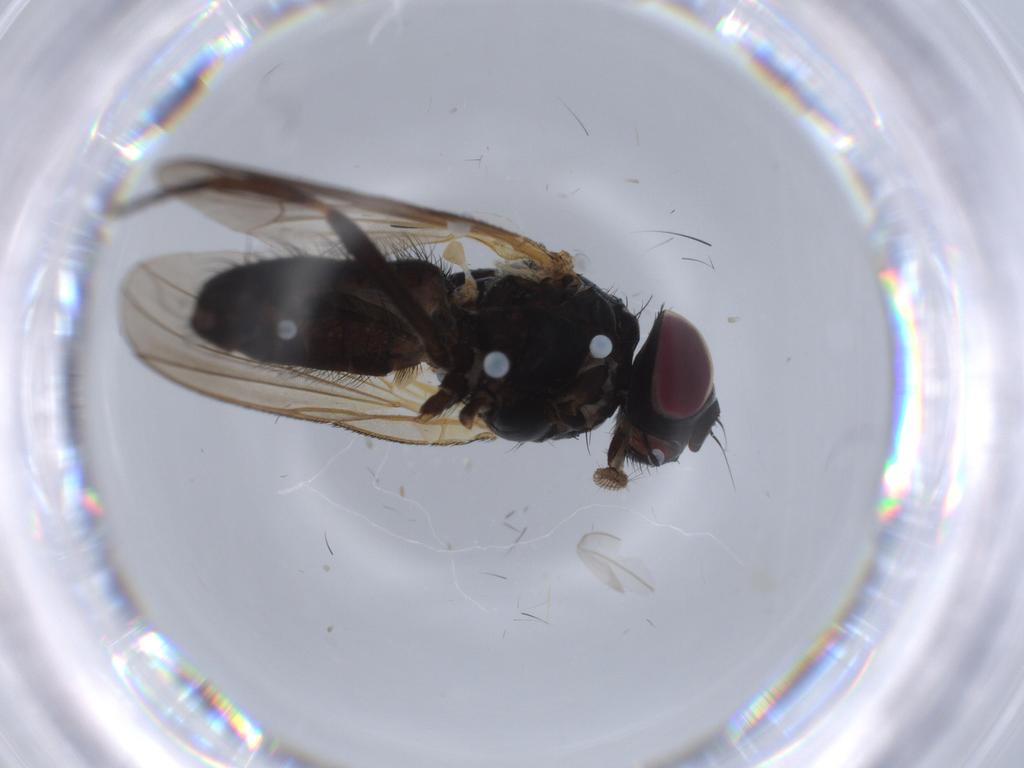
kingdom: Animalia
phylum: Arthropoda
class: Insecta
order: Diptera
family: Fannia
